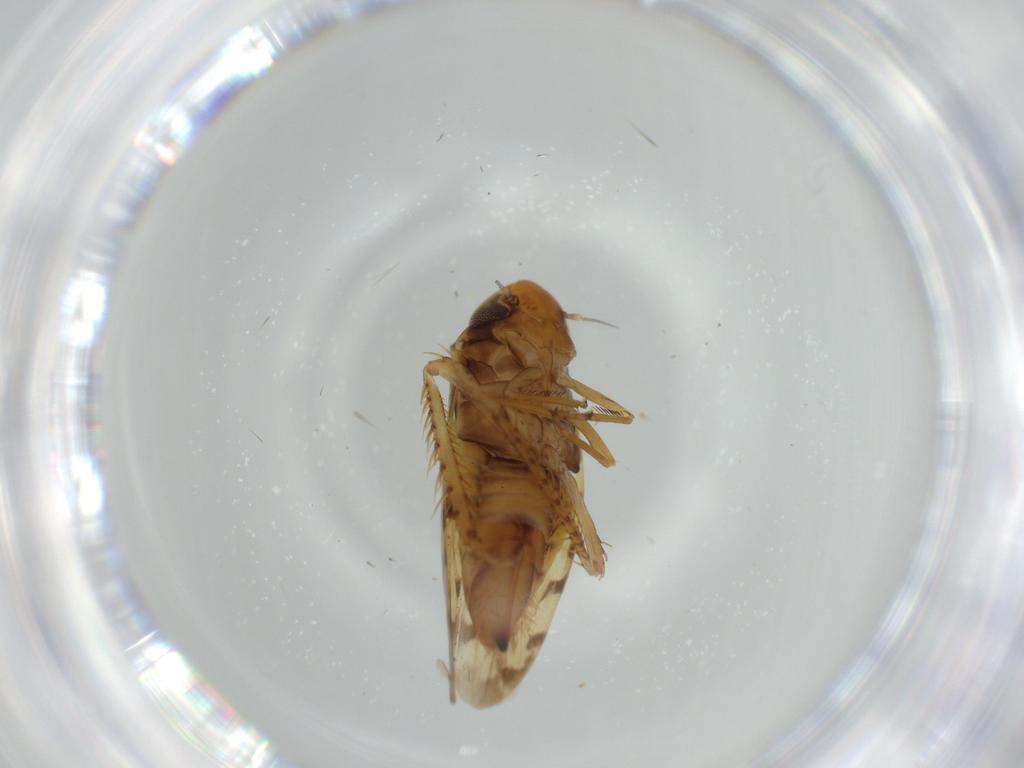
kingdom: Animalia
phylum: Arthropoda
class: Insecta
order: Hemiptera
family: Cicadellidae
